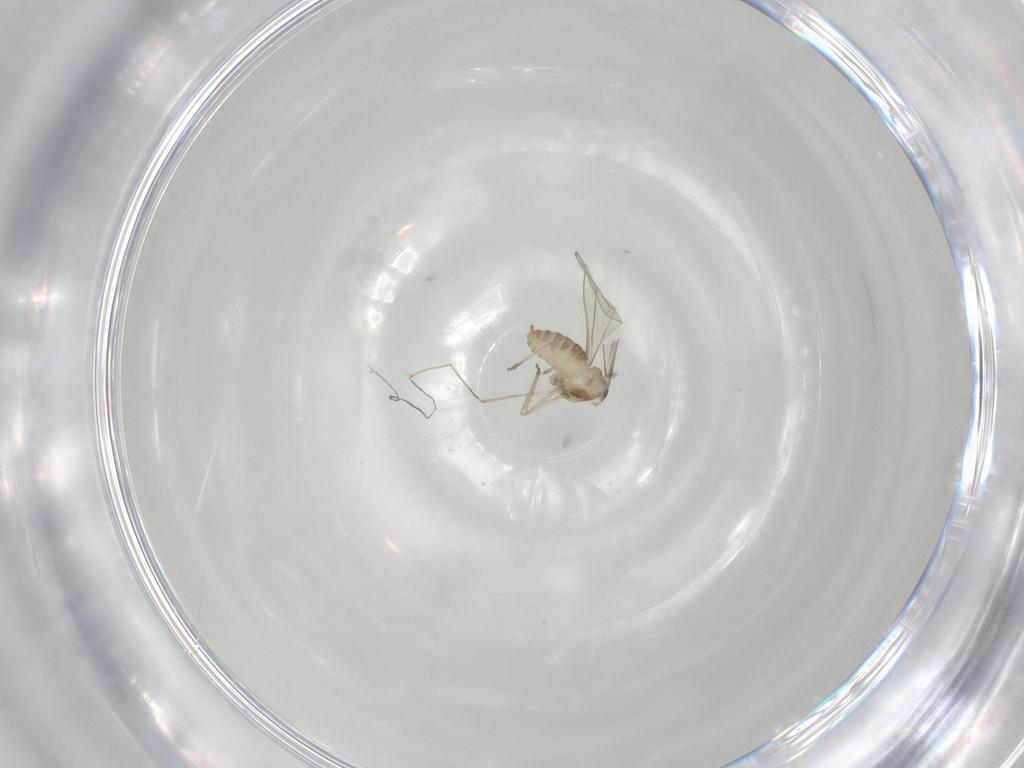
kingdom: Animalia
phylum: Arthropoda
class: Insecta
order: Diptera
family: Cecidomyiidae
